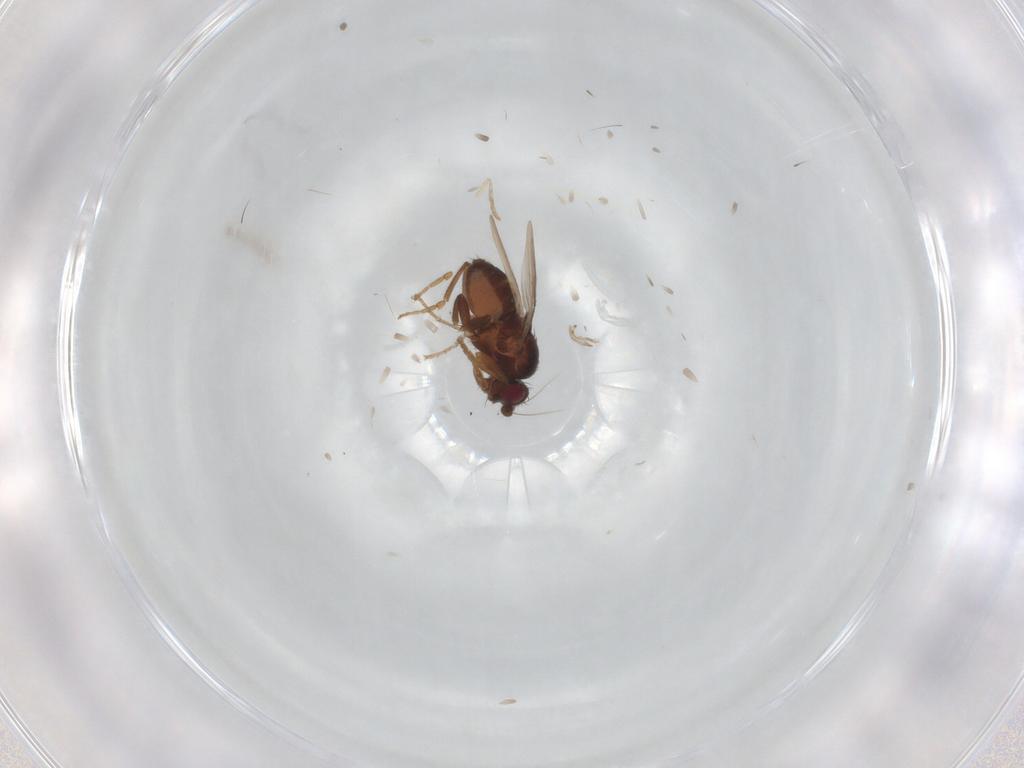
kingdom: Animalia
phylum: Arthropoda
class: Insecta
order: Diptera
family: Sphaeroceridae
